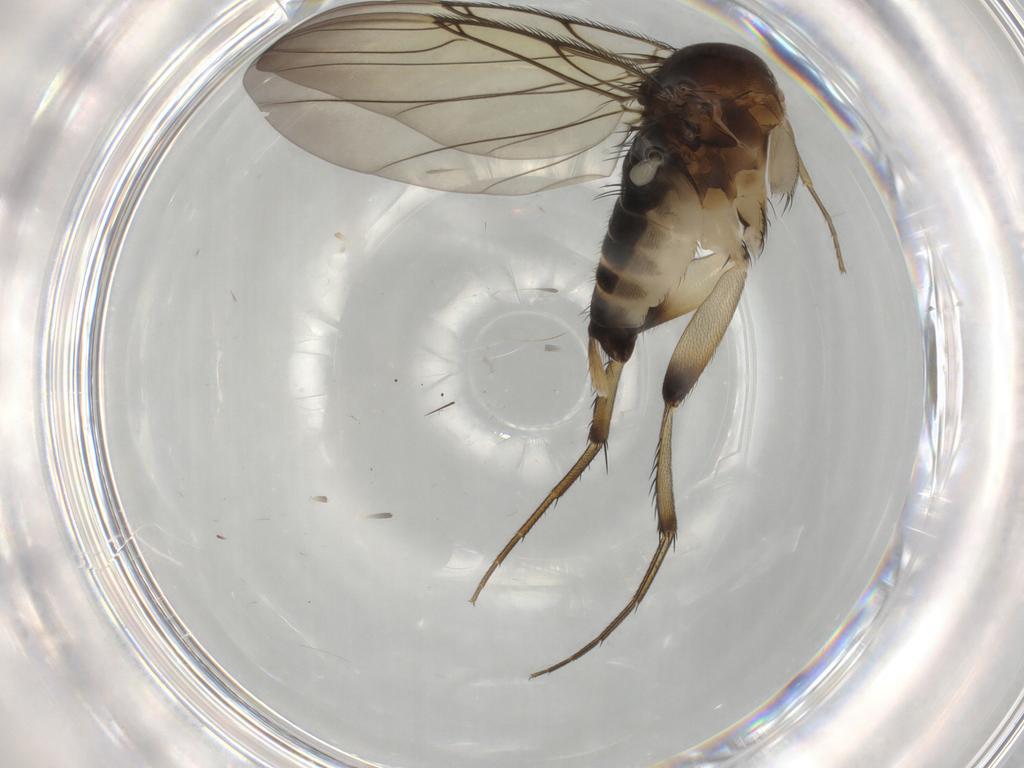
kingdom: Animalia
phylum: Arthropoda
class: Insecta
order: Diptera
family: Phoridae
